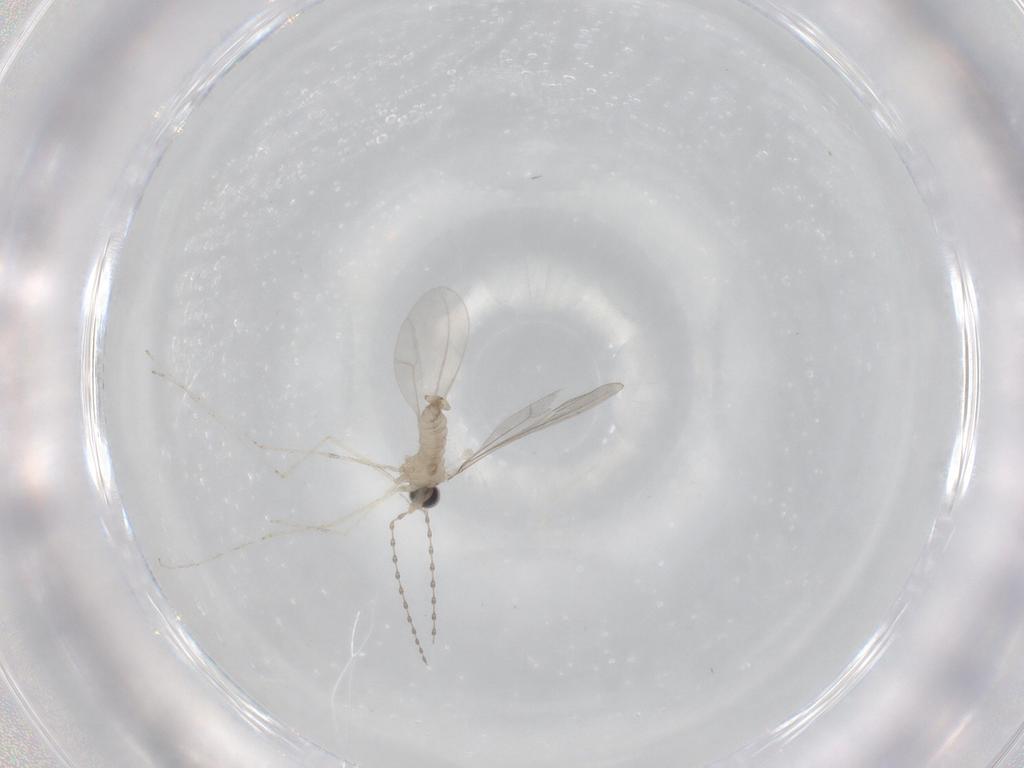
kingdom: Animalia
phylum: Arthropoda
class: Insecta
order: Diptera
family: Cecidomyiidae
